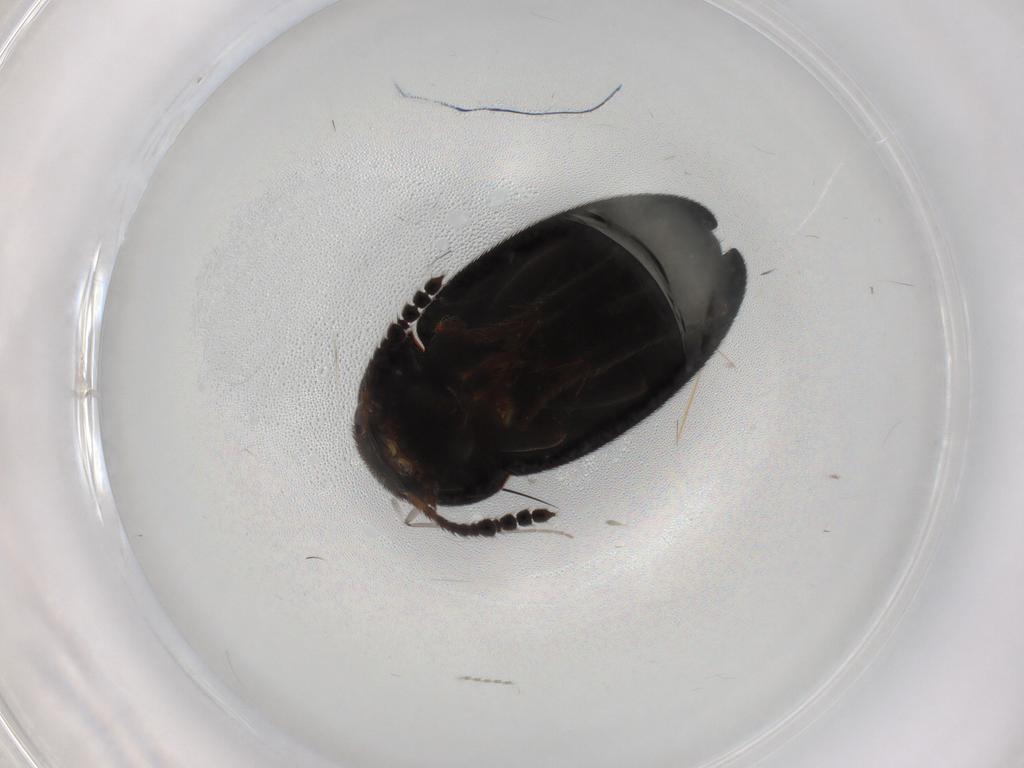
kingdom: Animalia
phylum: Arthropoda
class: Insecta
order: Coleoptera
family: Leiodidae
